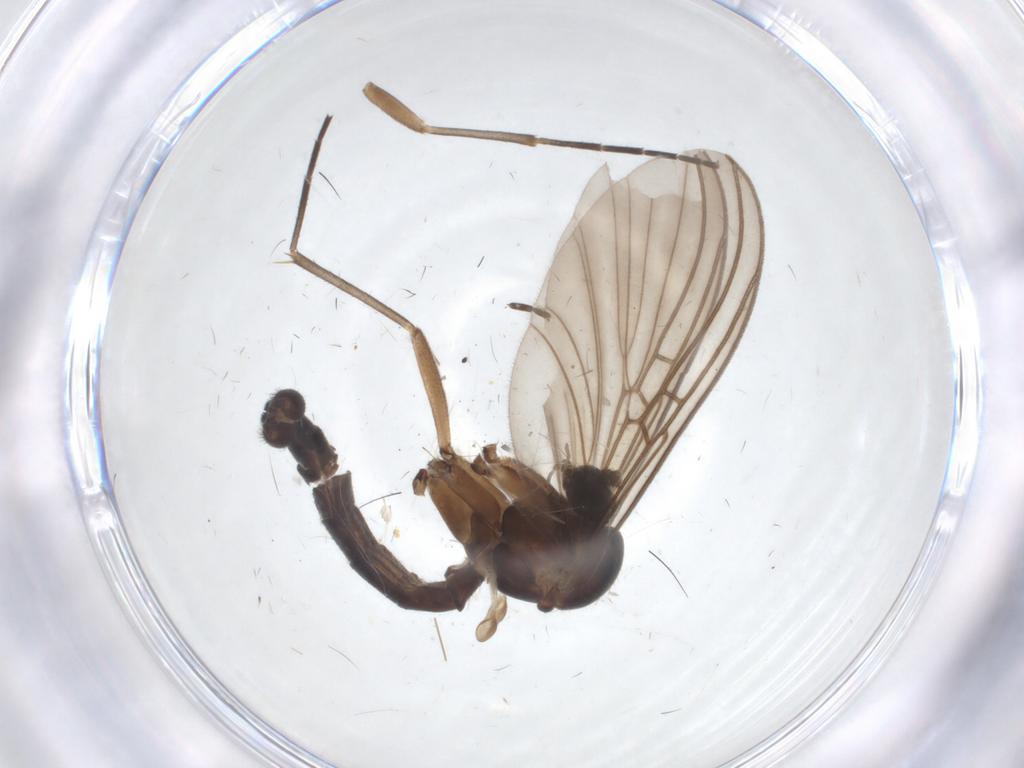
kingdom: Animalia
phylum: Arthropoda
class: Insecta
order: Diptera
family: Mycetophilidae
